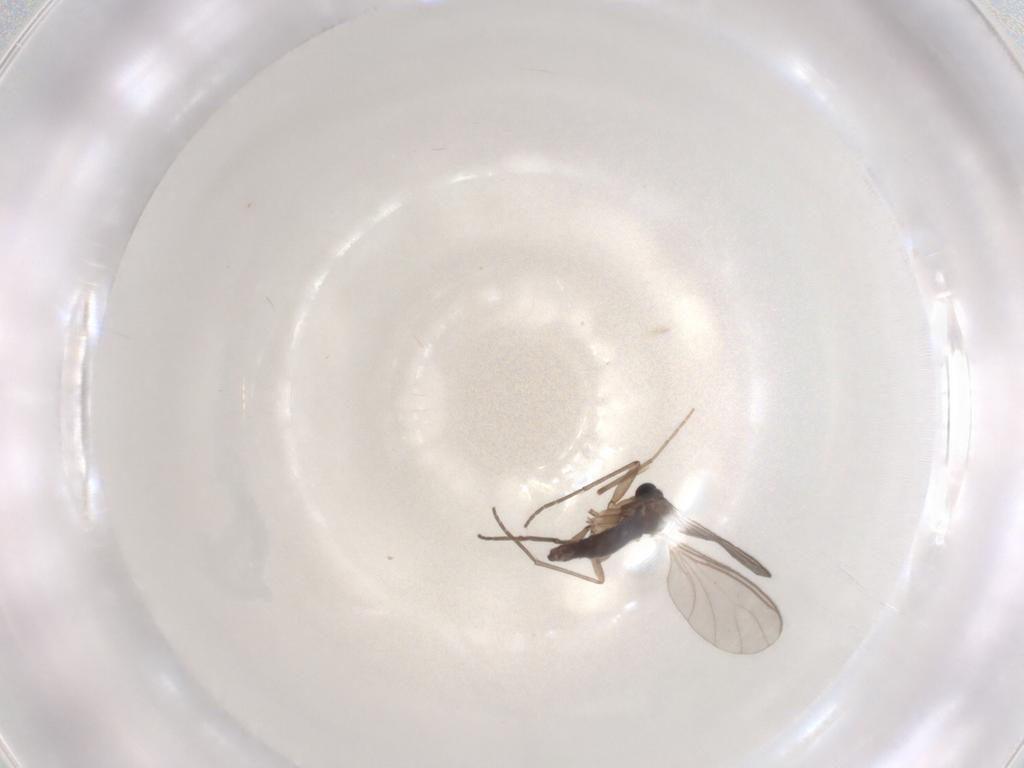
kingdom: Animalia
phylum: Arthropoda
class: Insecta
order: Diptera
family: Sciaridae
